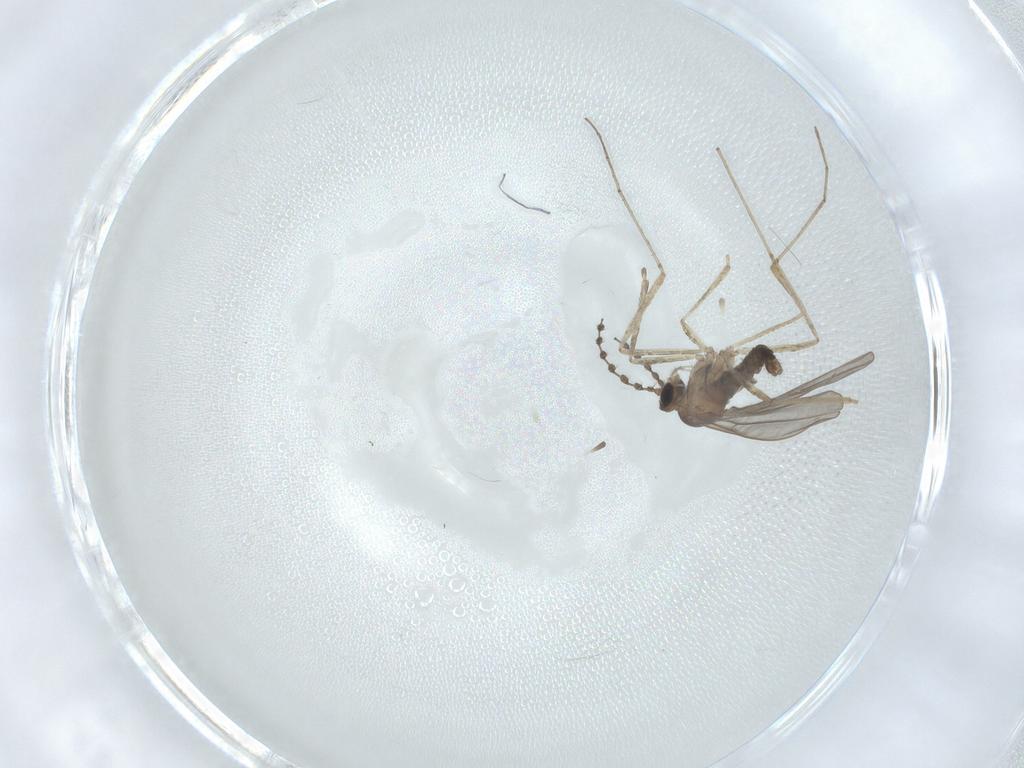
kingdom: Animalia
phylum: Arthropoda
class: Insecta
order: Diptera
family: Cecidomyiidae
